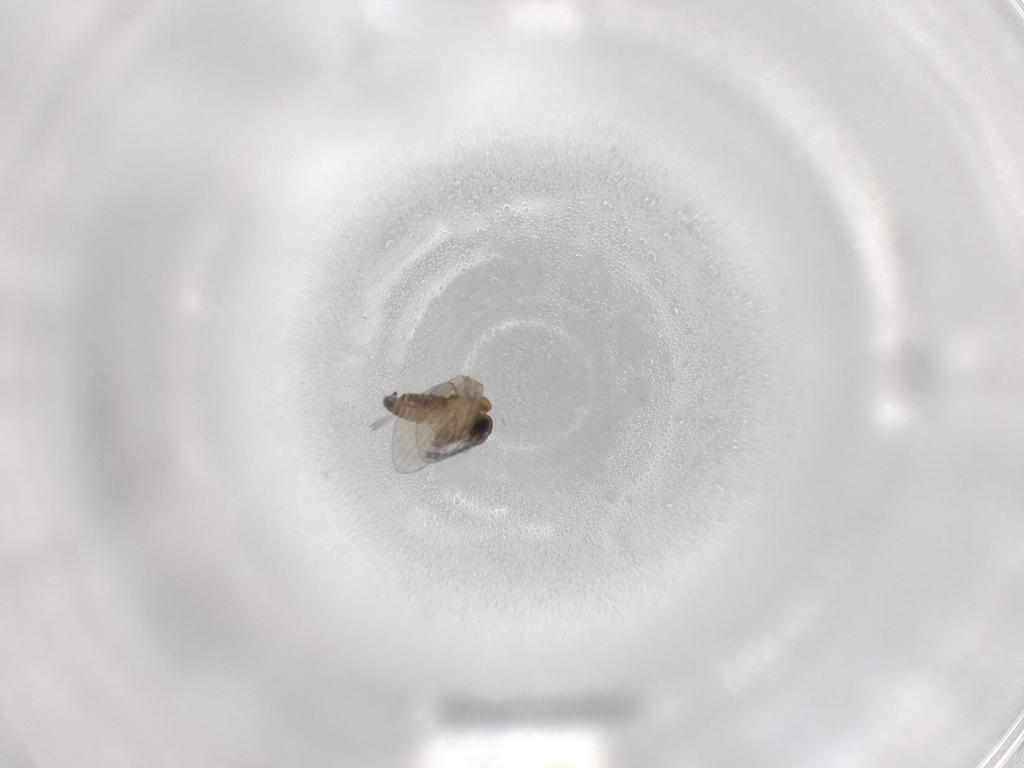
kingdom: Animalia
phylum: Arthropoda
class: Insecta
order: Diptera
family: Psychodidae
